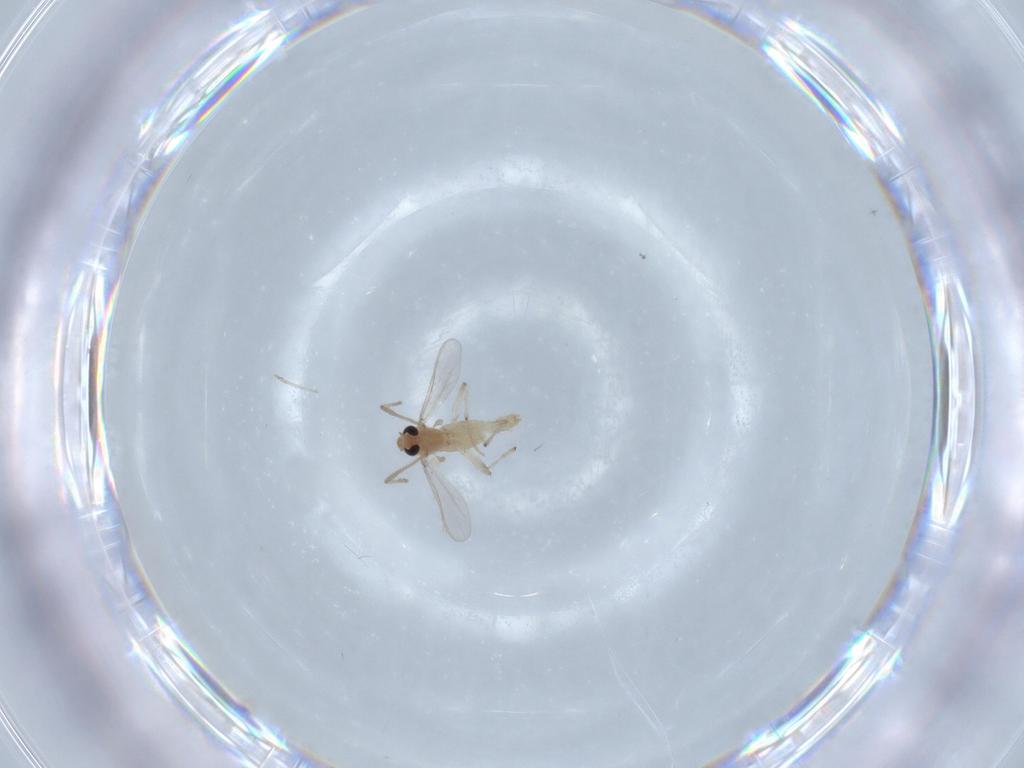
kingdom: Animalia
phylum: Arthropoda
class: Insecta
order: Diptera
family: Chironomidae
